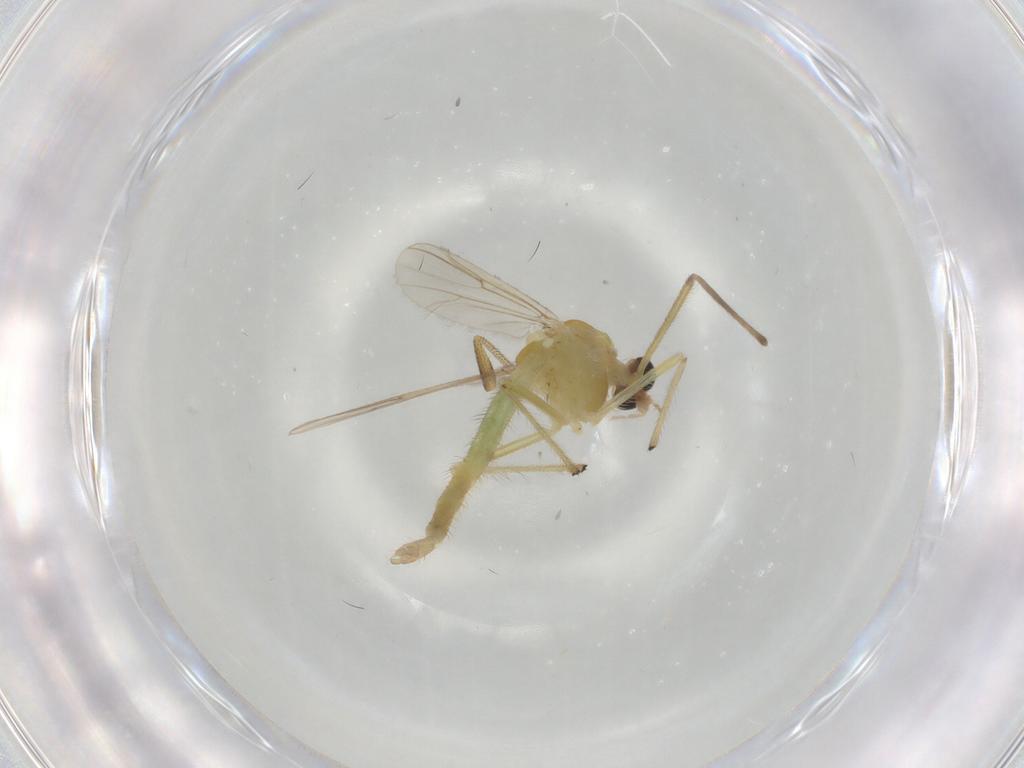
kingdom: Animalia
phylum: Arthropoda
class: Insecta
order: Diptera
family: Chironomidae
